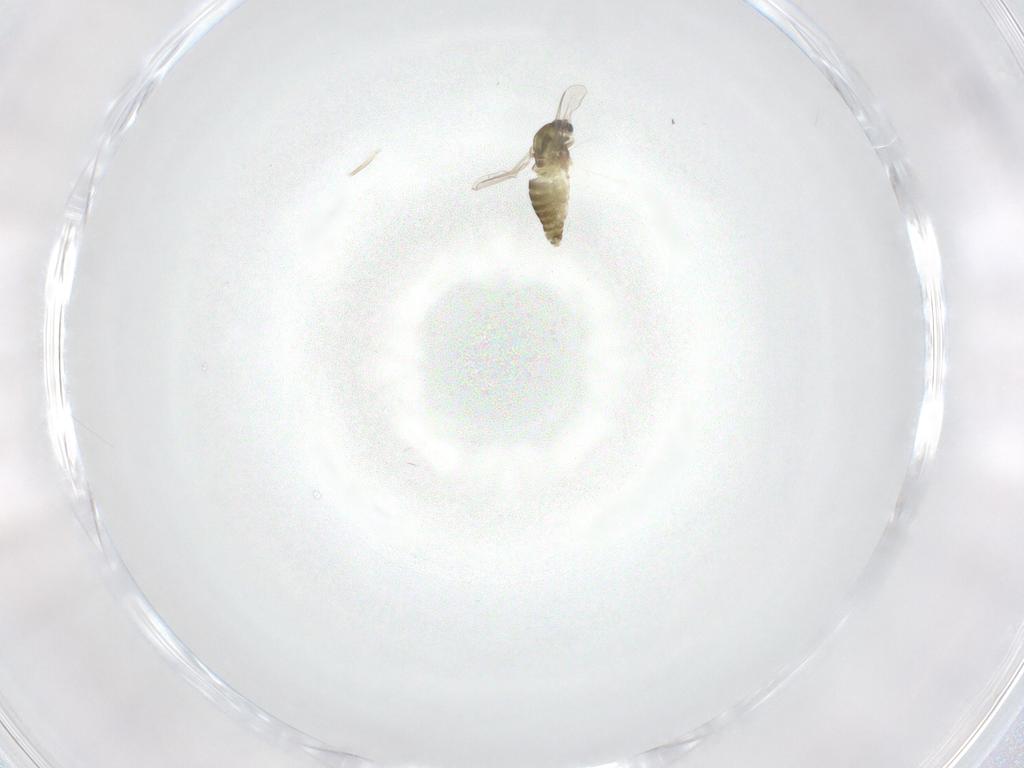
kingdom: Animalia
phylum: Arthropoda
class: Insecta
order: Diptera
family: Chironomidae
